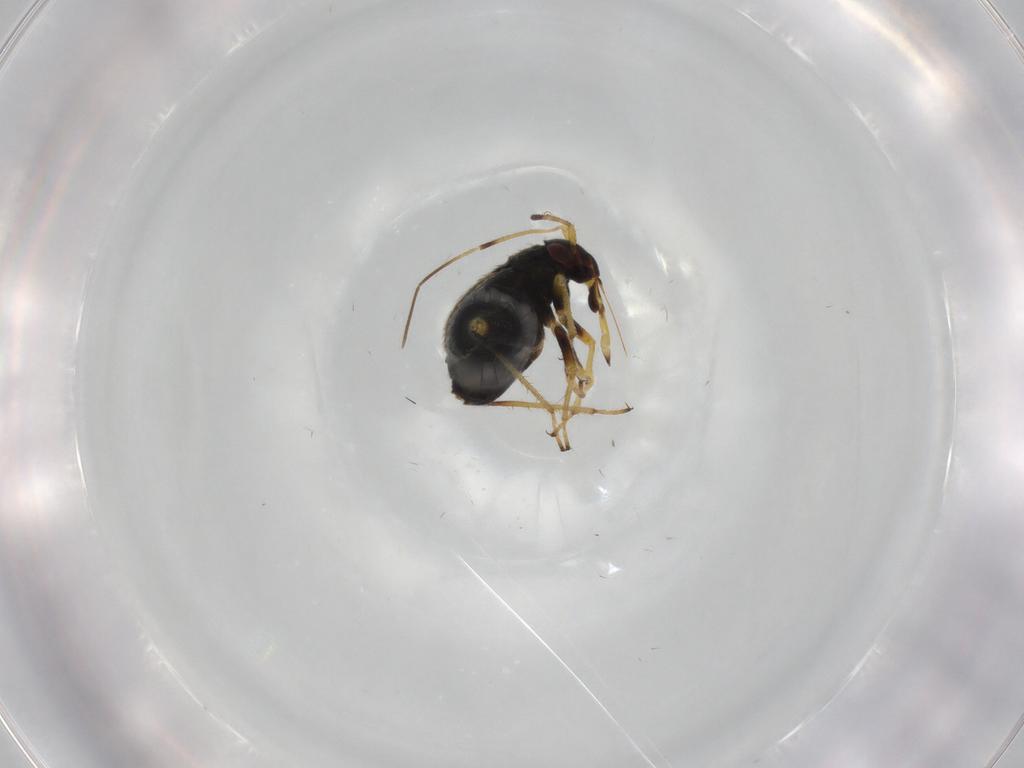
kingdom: Animalia
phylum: Arthropoda
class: Insecta
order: Hemiptera
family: Miridae
